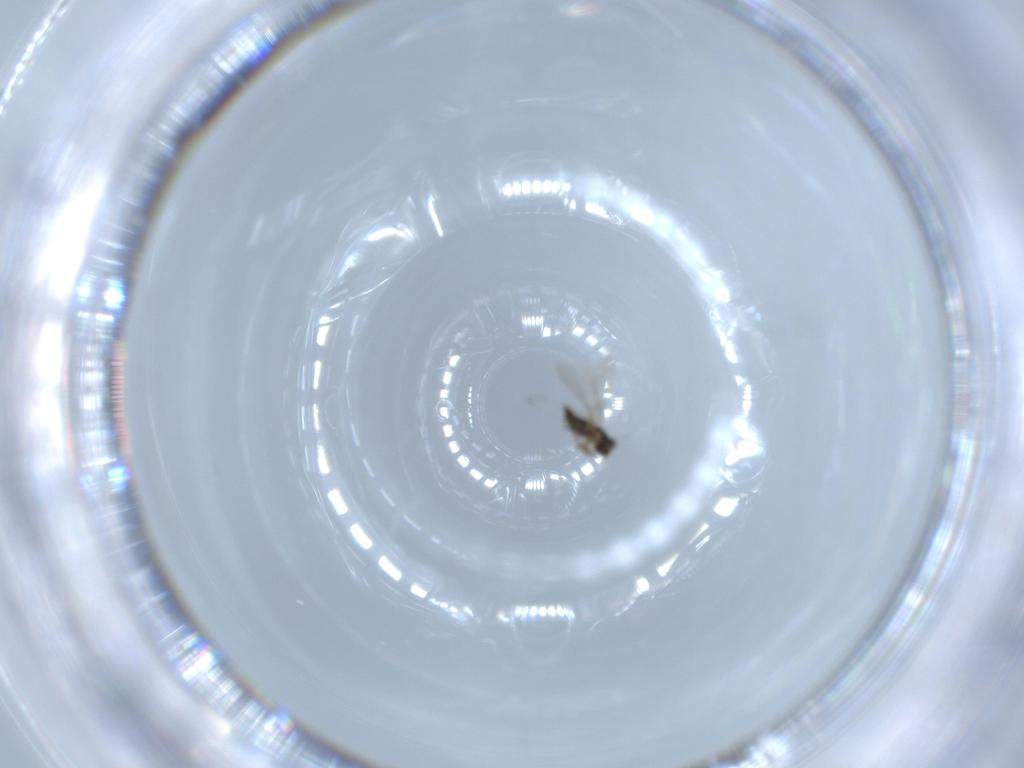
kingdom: Animalia
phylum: Arthropoda
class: Insecta
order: Hymenoptera
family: Mymaridae
